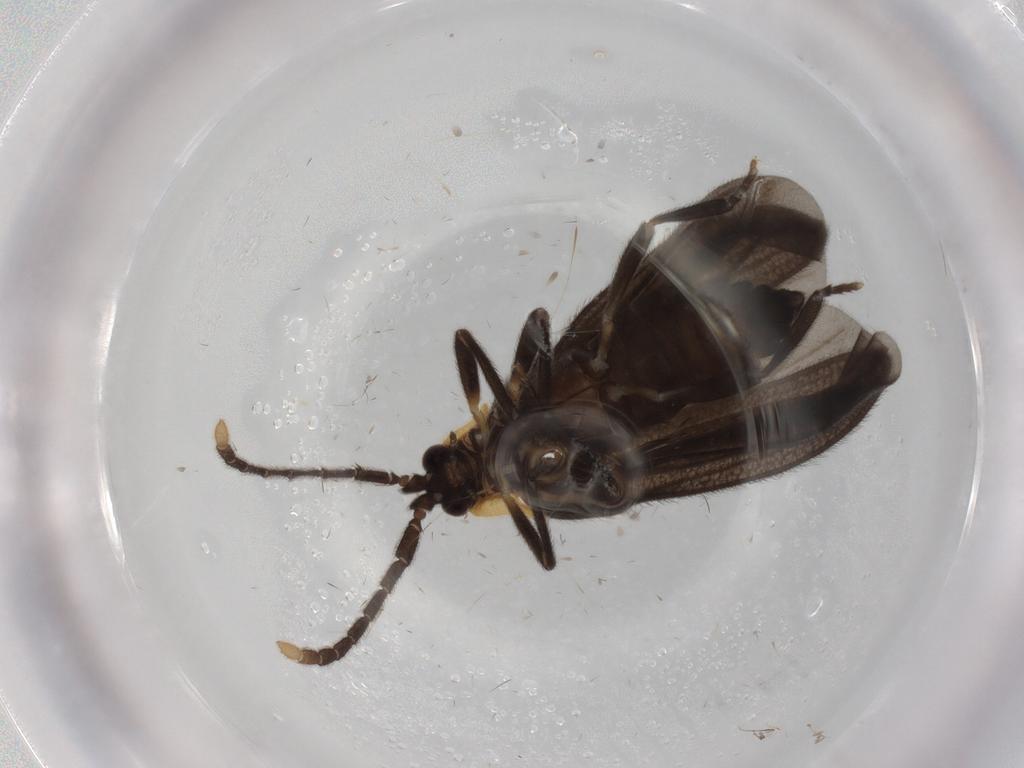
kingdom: Animalia
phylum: Arthropoda
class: Insecta
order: Coleoptera
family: Lycidae
